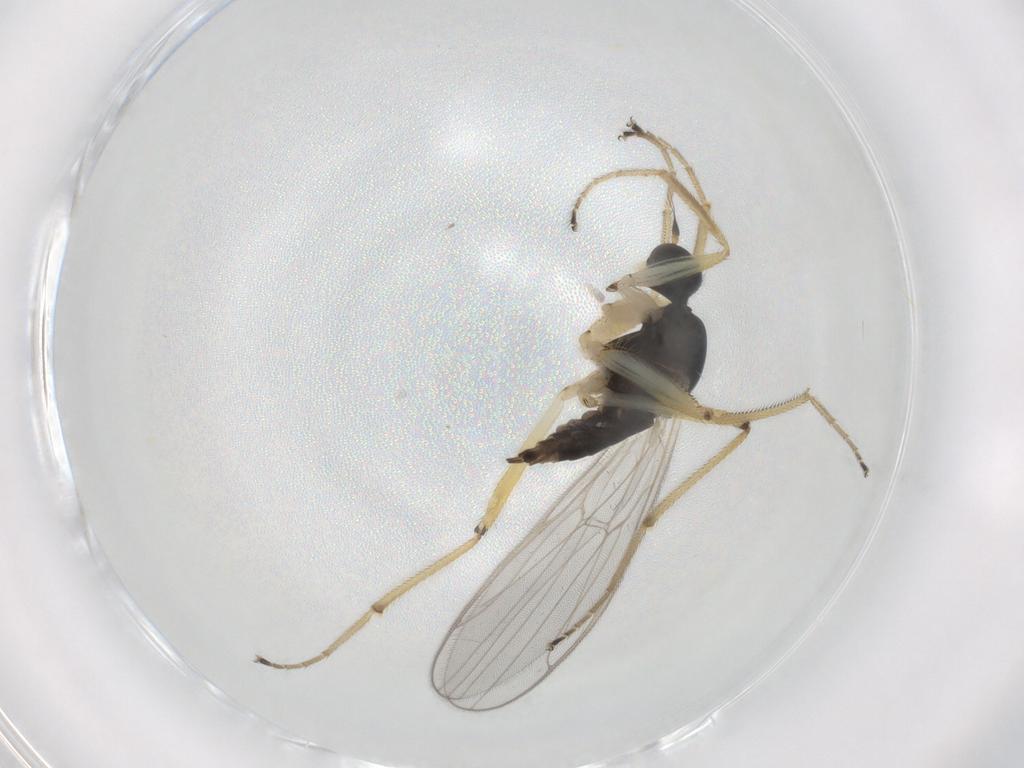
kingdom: Animalia
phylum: Arthropoda
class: Insecta
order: Diptera
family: Hybotidae
